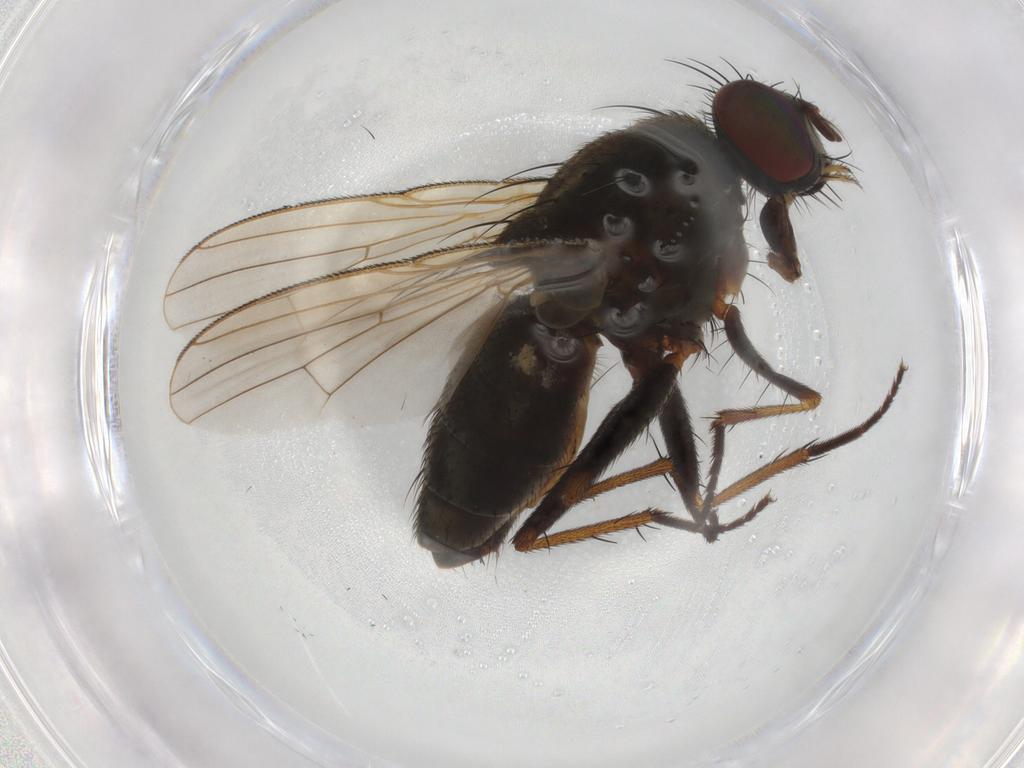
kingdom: Animalia
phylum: Arthropoda
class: Insecta
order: Diptera
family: Muscidae
